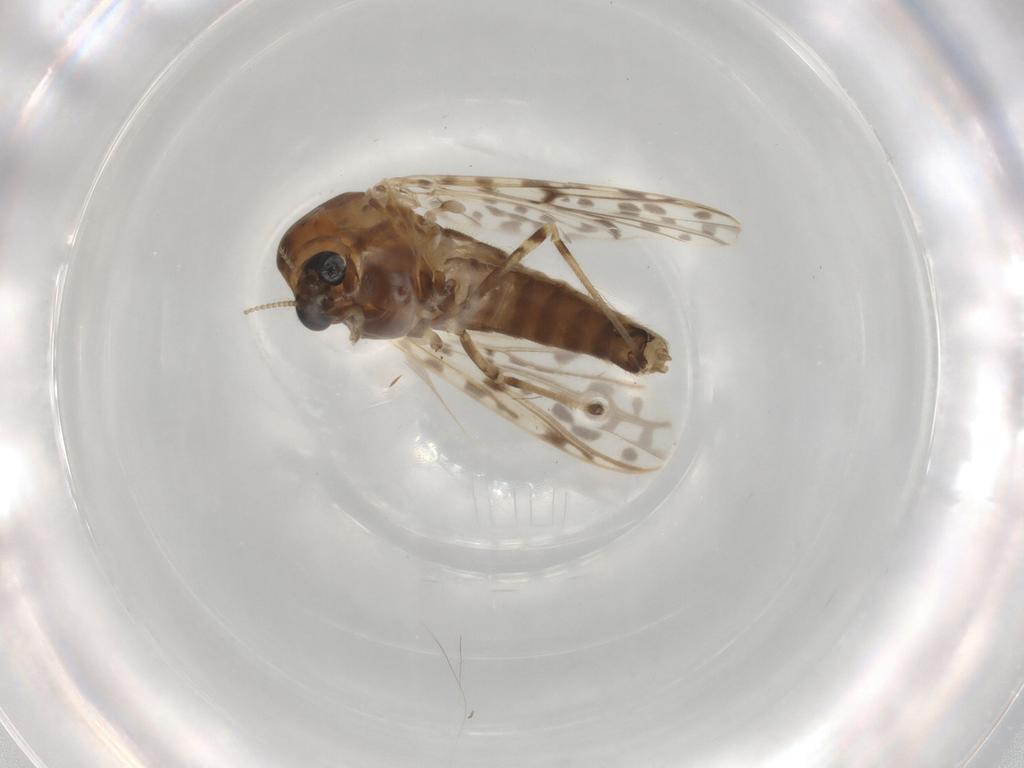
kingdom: Animalia
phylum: Arthropoda
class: Insecta
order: Diptera
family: Chironomidae
